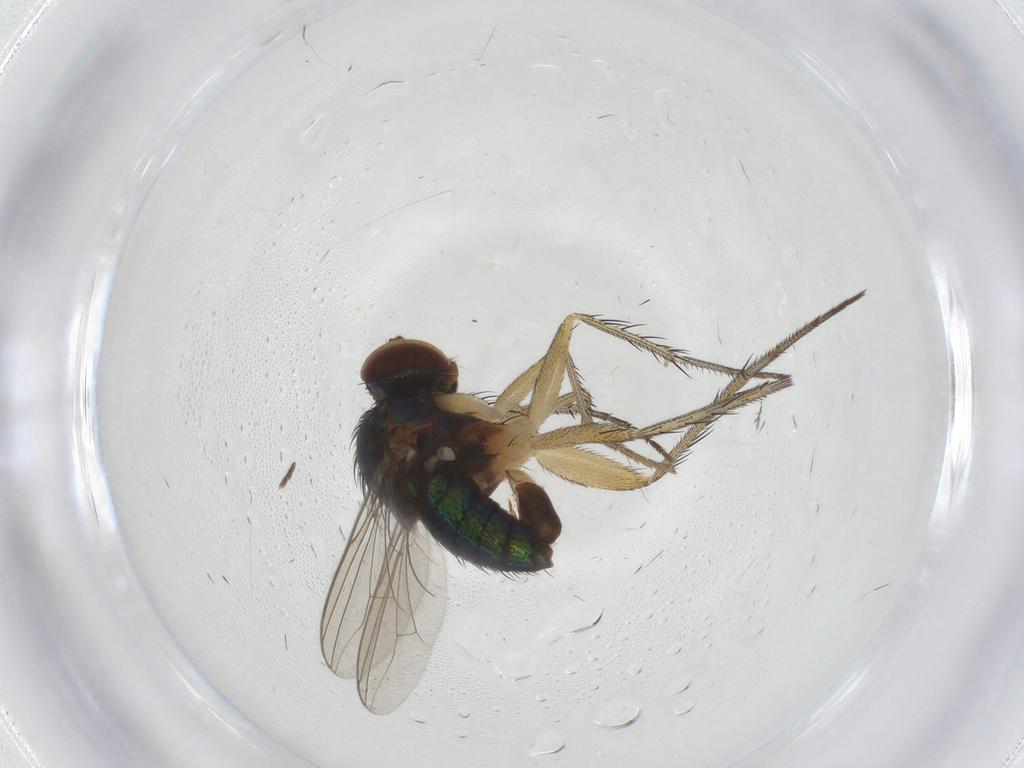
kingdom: Animalia
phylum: Arthropoda
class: Insecta
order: Diptera
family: Dolichopodidae
